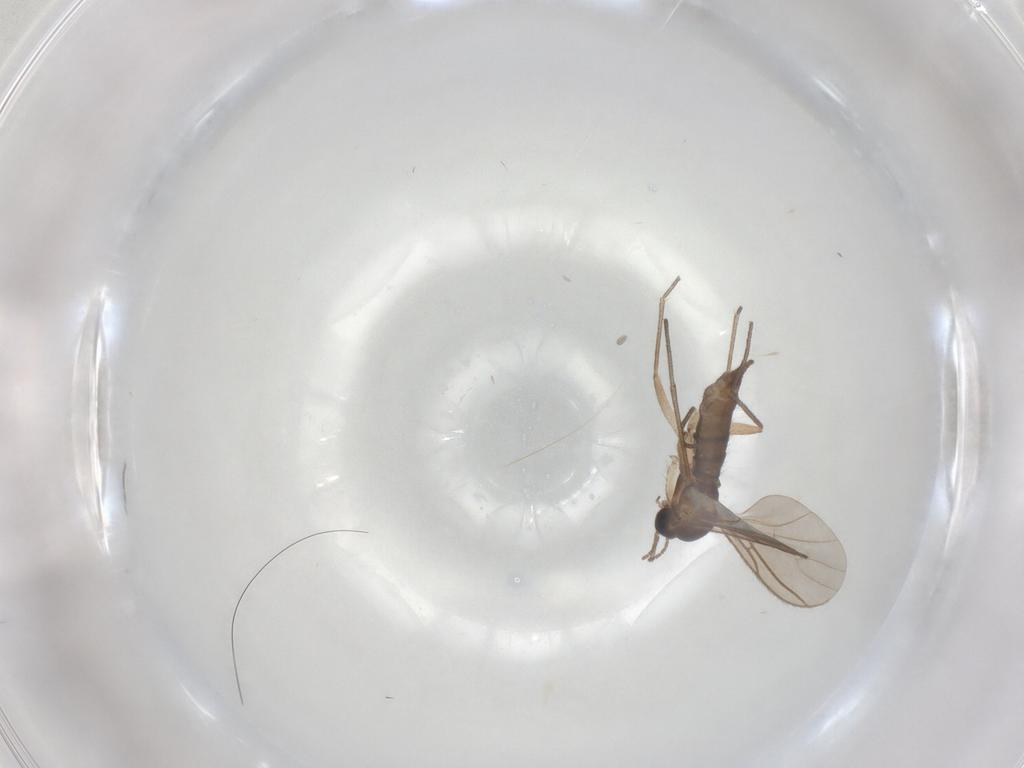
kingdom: Animalia
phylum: Arthropoda
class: Insecta
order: Diptera
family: Sciaridae
